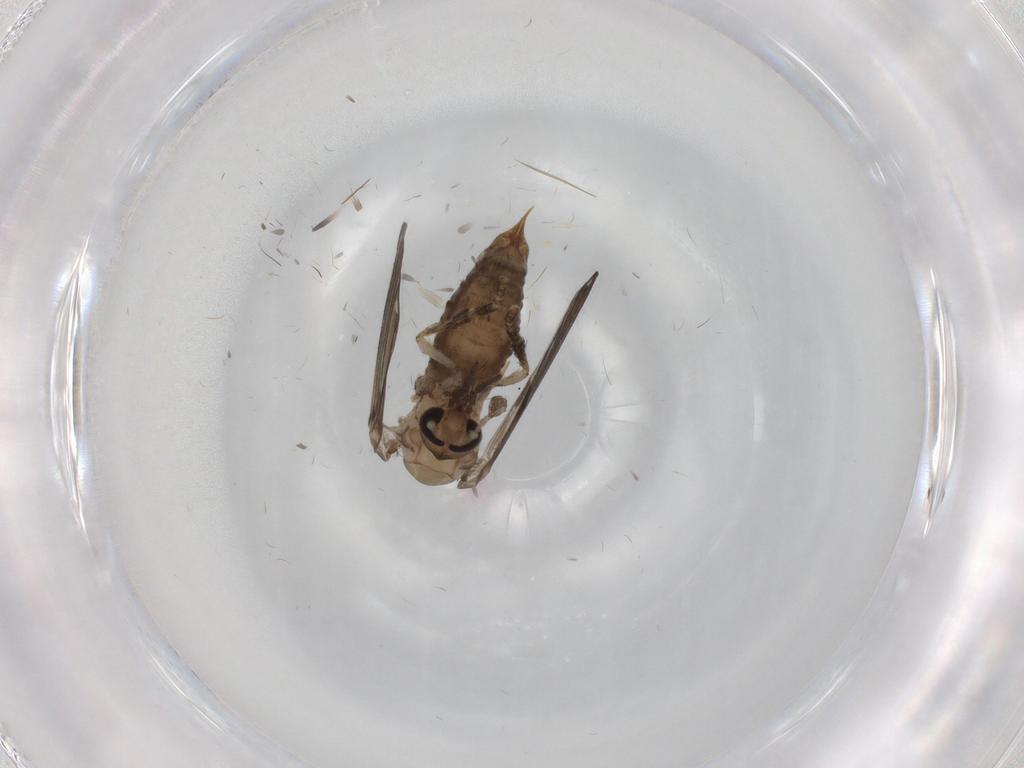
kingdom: Animalia
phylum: Arthropoda
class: Insecta
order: Diptera
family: Psychodidae
